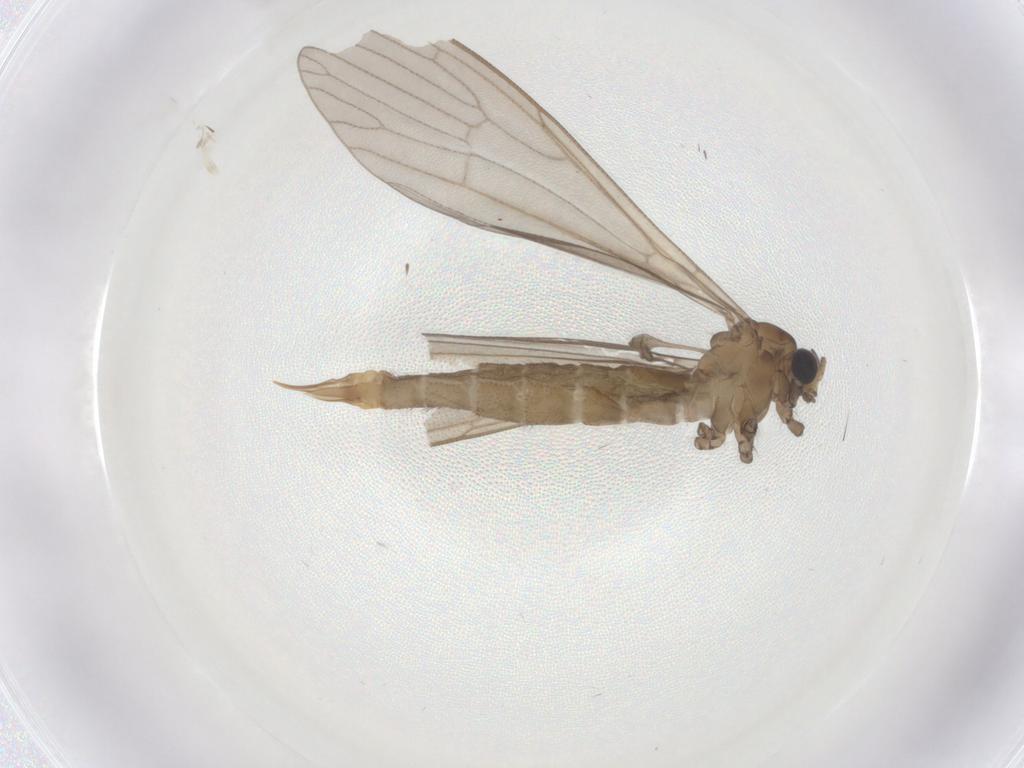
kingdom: Animalia
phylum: Arthropoda
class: Insecta
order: Diptera
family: Limoniidae
